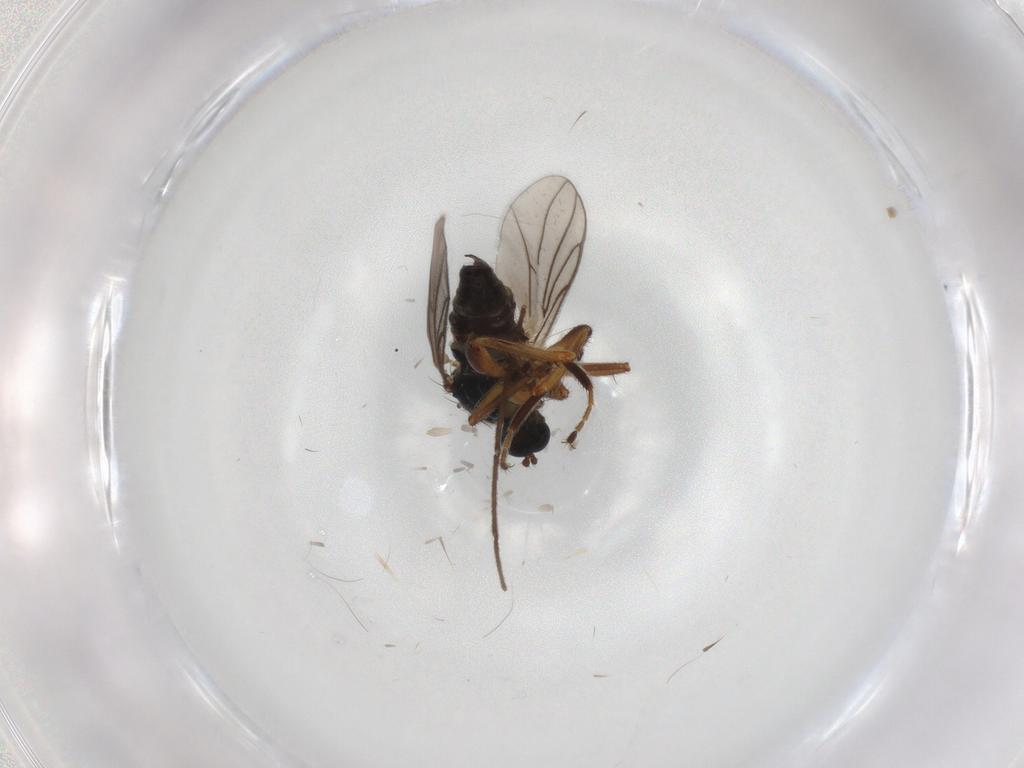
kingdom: Animalia
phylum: Arthropoda
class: Insecta
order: Diptera
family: Hybotidae
